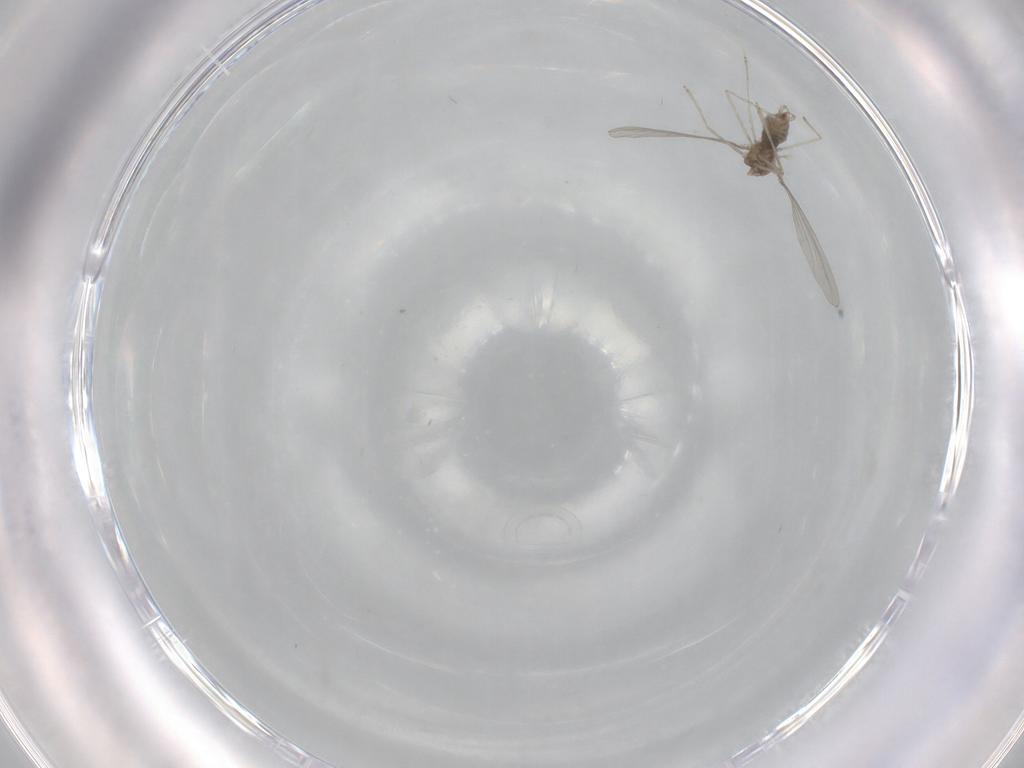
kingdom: Animalia
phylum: Arthropoda
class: Insecta
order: Diptera
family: Cecidomyiidae
